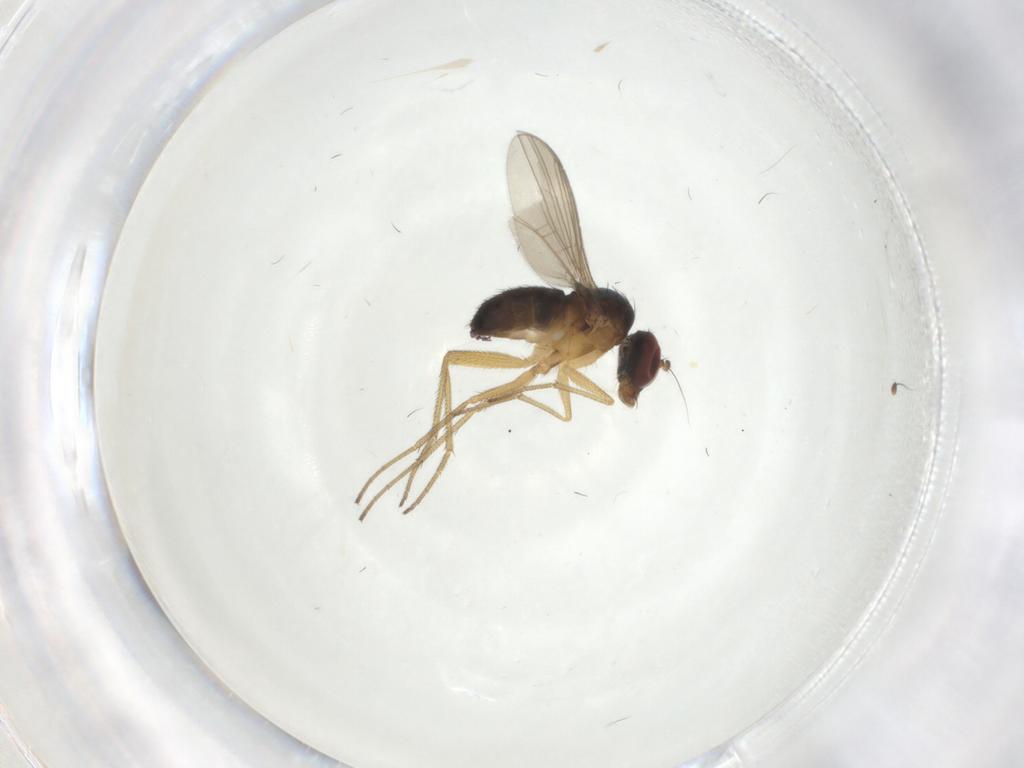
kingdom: Animalia
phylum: Arthropoda
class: Insecta
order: Diptera
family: Dolichopodidae
